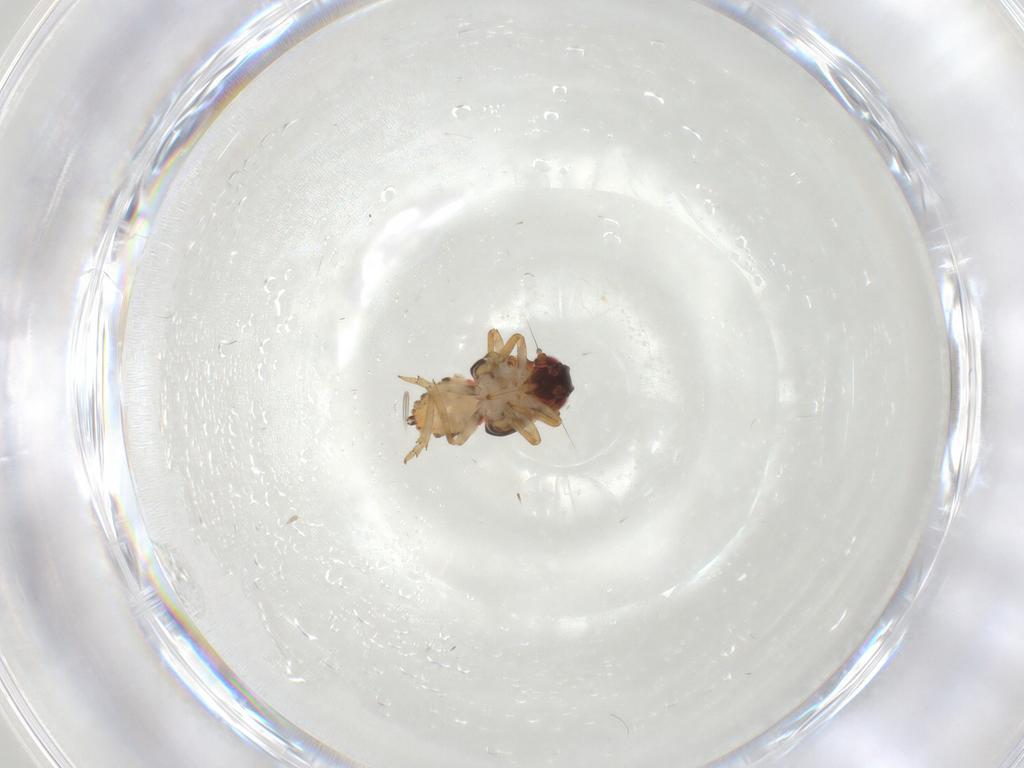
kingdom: Animalia
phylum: Arthropoda
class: Insecta
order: Hemiptera
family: Issidae
